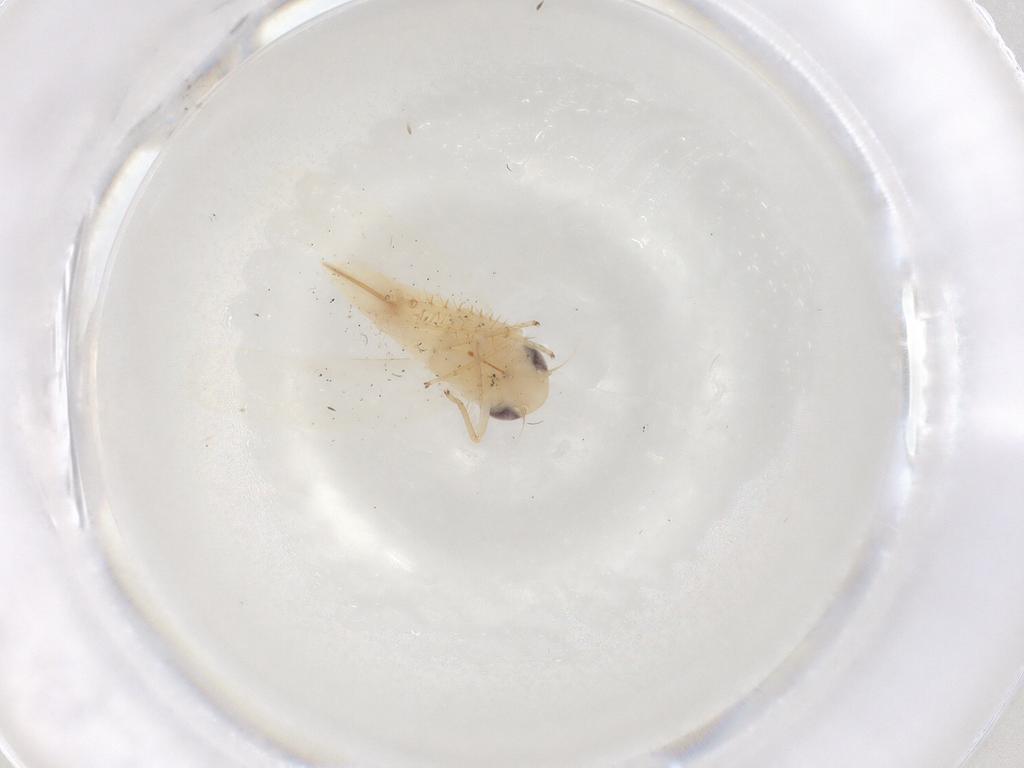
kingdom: Animalia
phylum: Arthropoda
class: Insecta
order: Hemiptera
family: Cicadellidae
